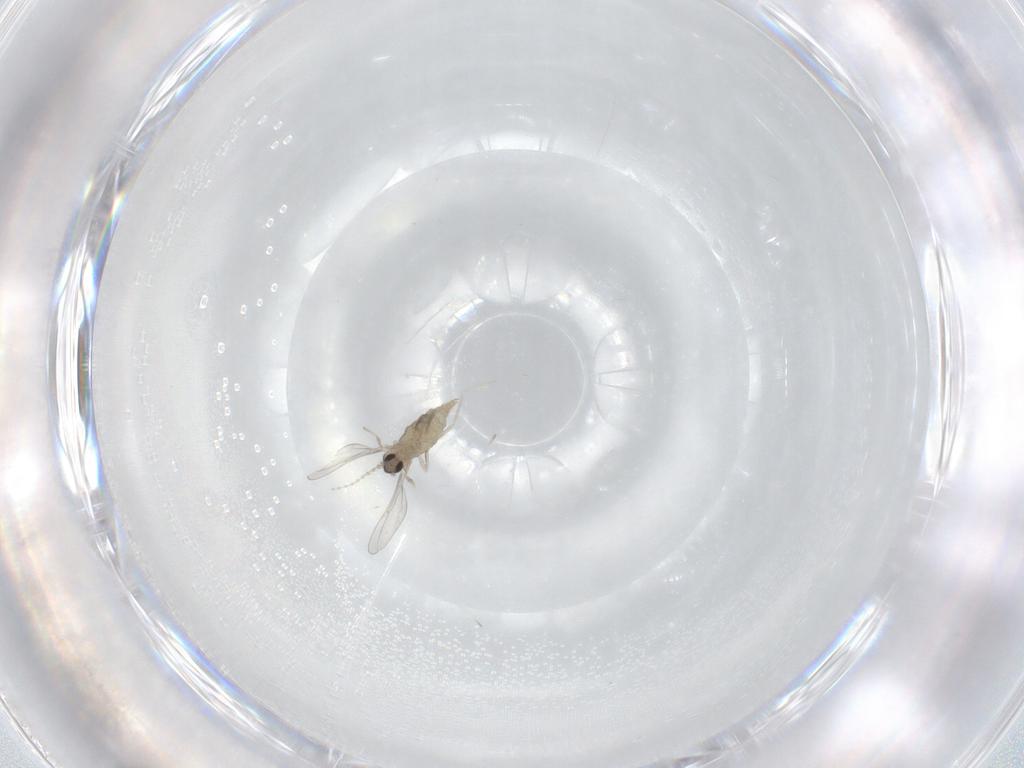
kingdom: Animalia
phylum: Arthropoda
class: Insecta
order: Diptera
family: Cecidomyiidae
